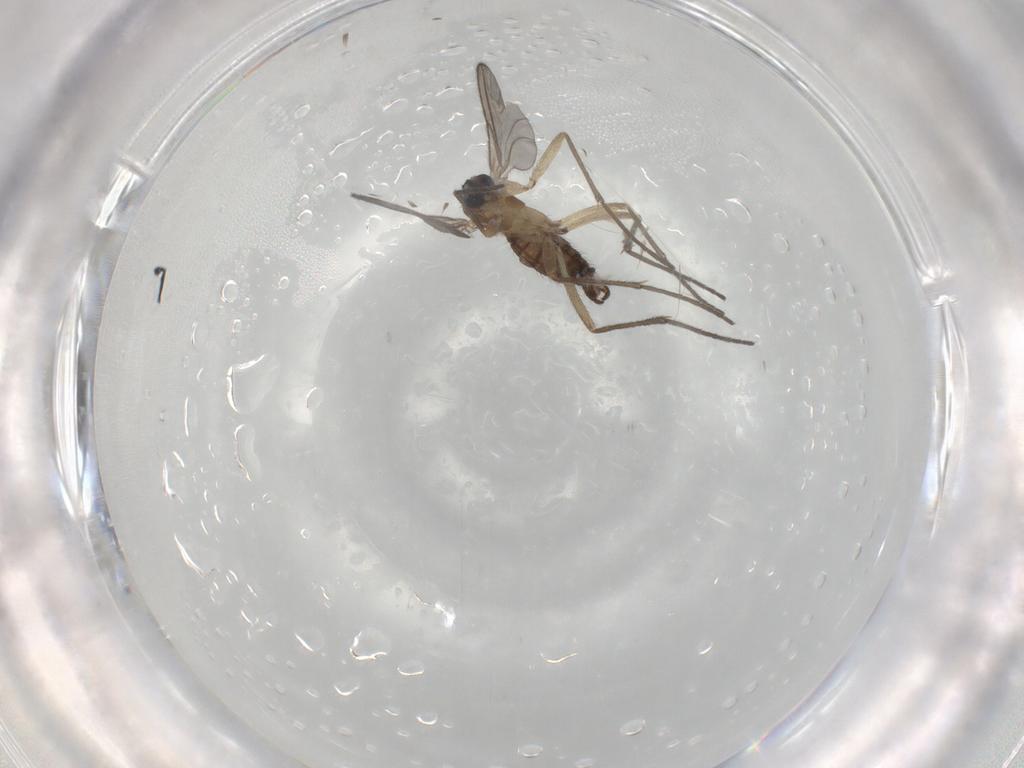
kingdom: Animalia
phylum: Arthropoda
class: Insecta
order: Diptera
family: Sciaridae
